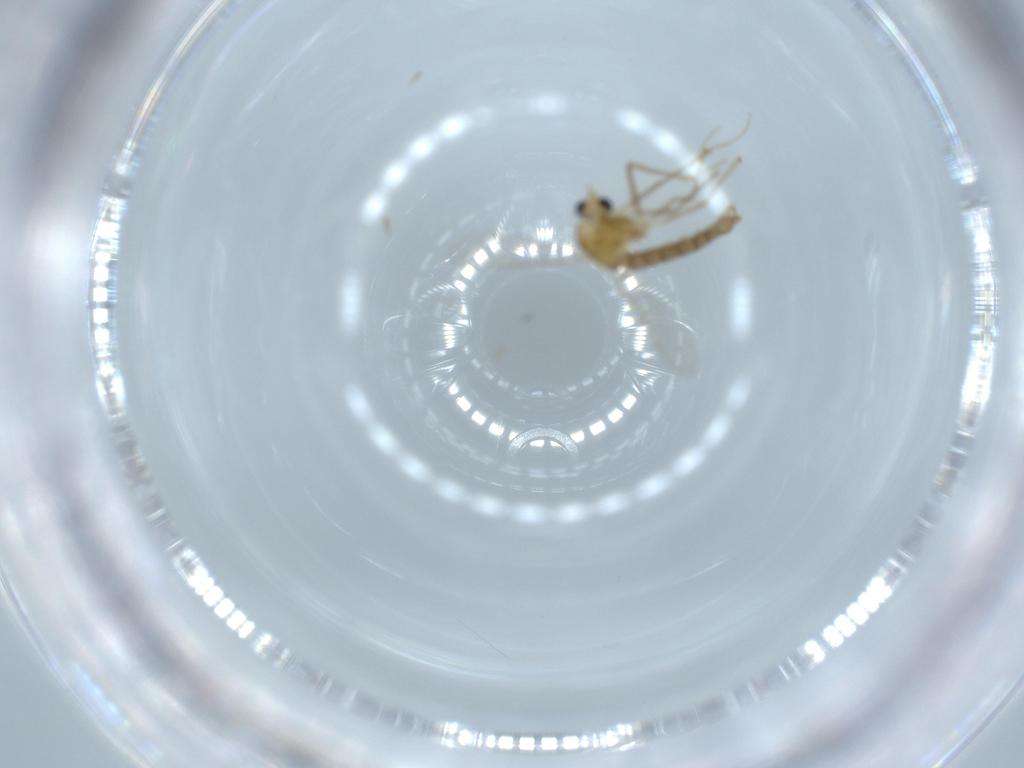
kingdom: Animalia
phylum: Arthropoda
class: Insecta
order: Diptera
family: Chironomidae
